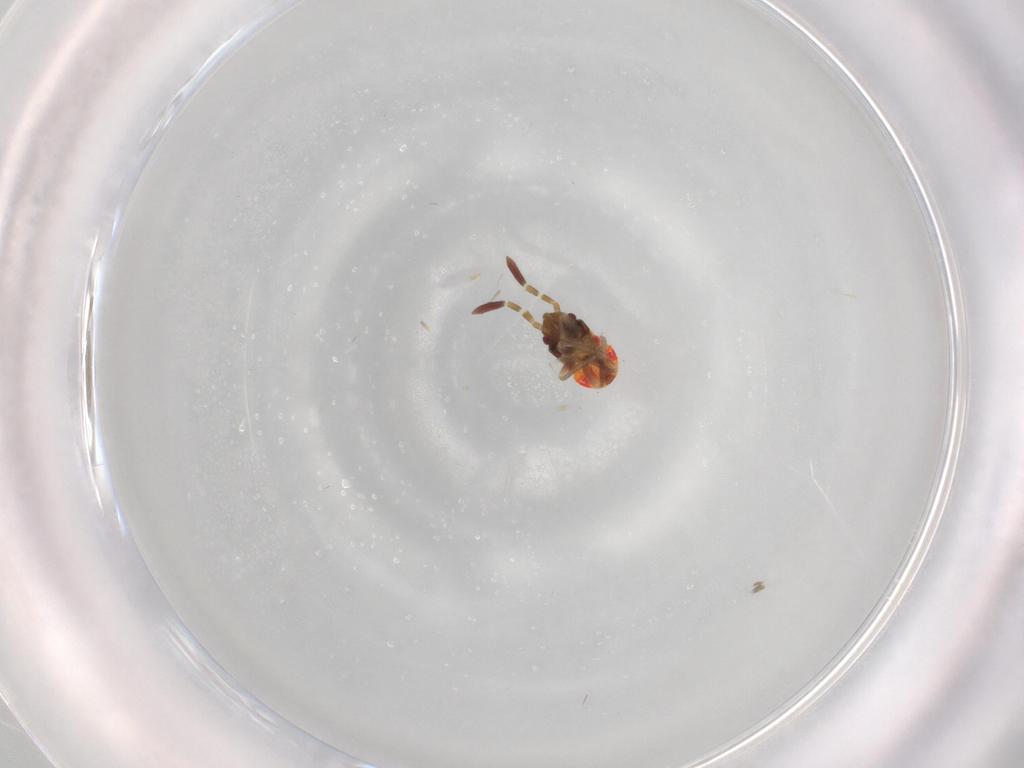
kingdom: Animalia
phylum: Arthropoda
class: Insecta
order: Hemiptera
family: Rhyparochromidae
